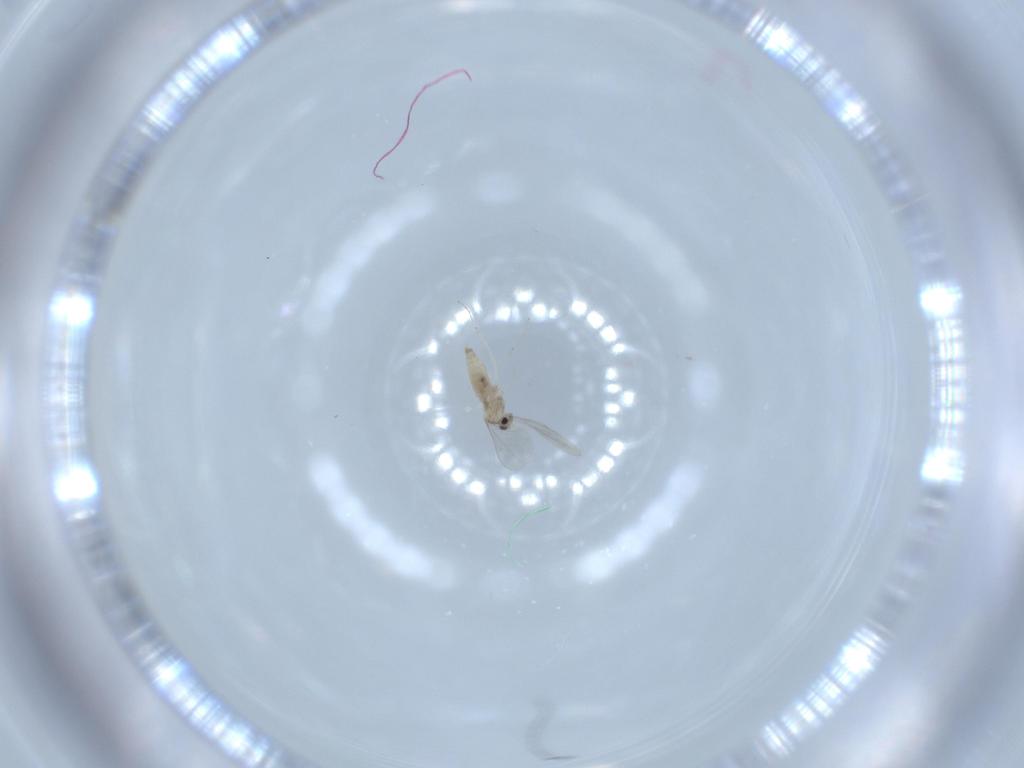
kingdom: Animalia
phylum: Arthropoda
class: Insecta
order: Diptera
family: Cecidomyiidae
